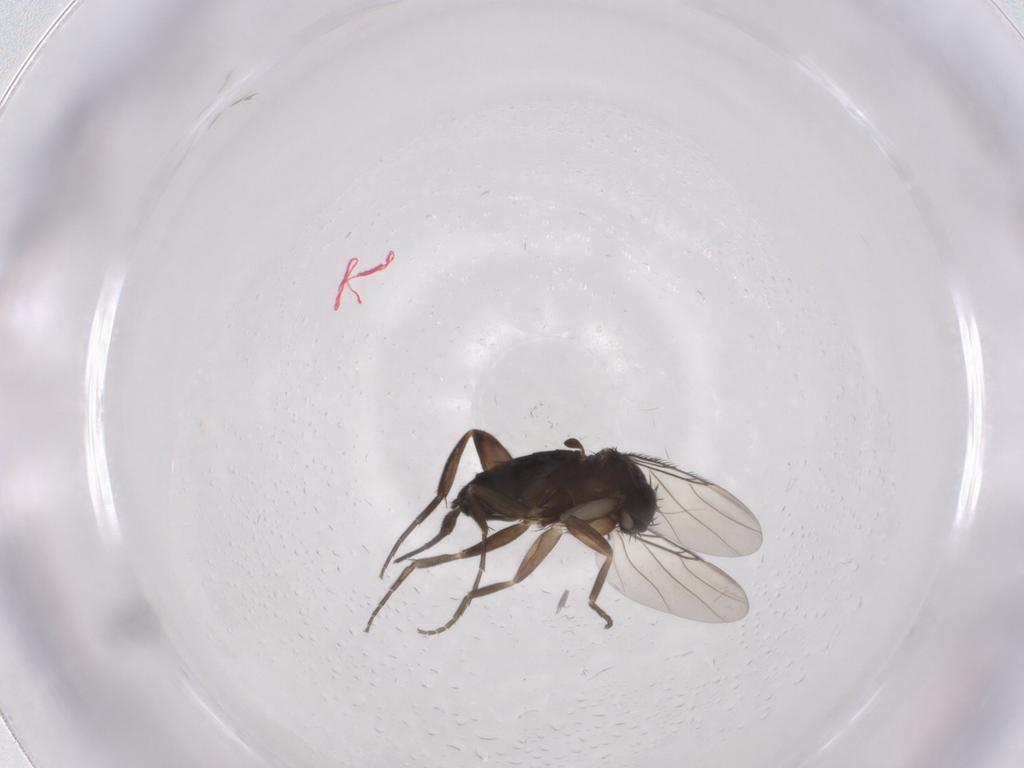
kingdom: Animalia
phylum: Arthropoda
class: Insecta
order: Diptera
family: Phoridae
